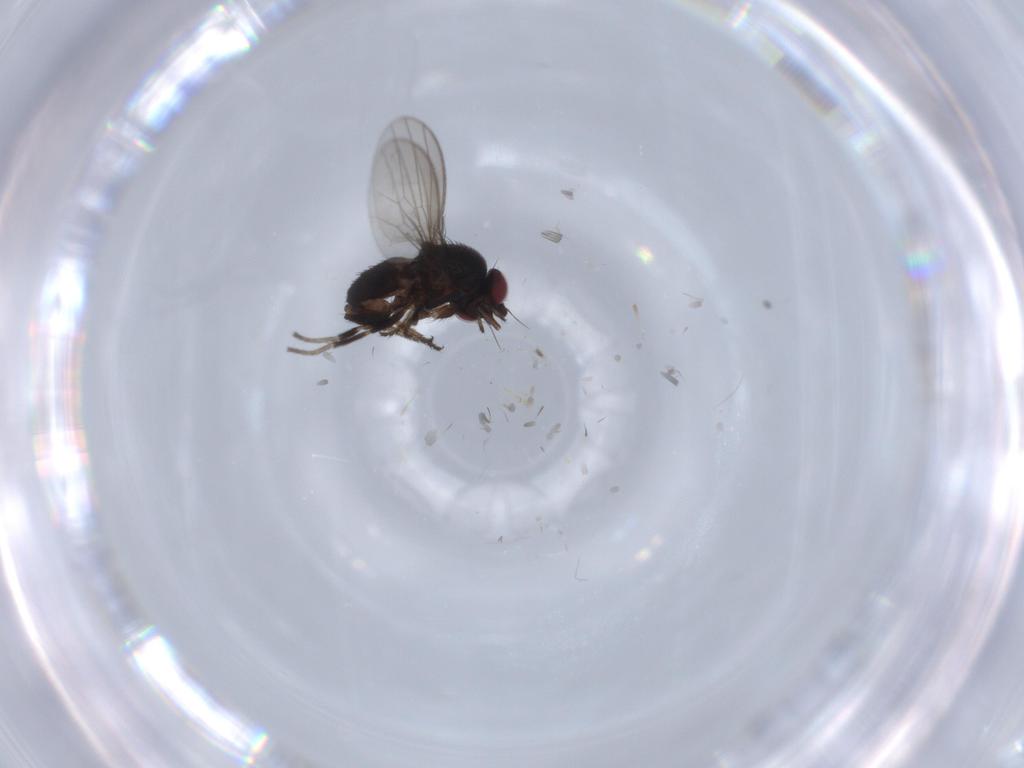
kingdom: Animalia
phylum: Arthropoda
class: Insecta
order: Diptera
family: Milichiidae
